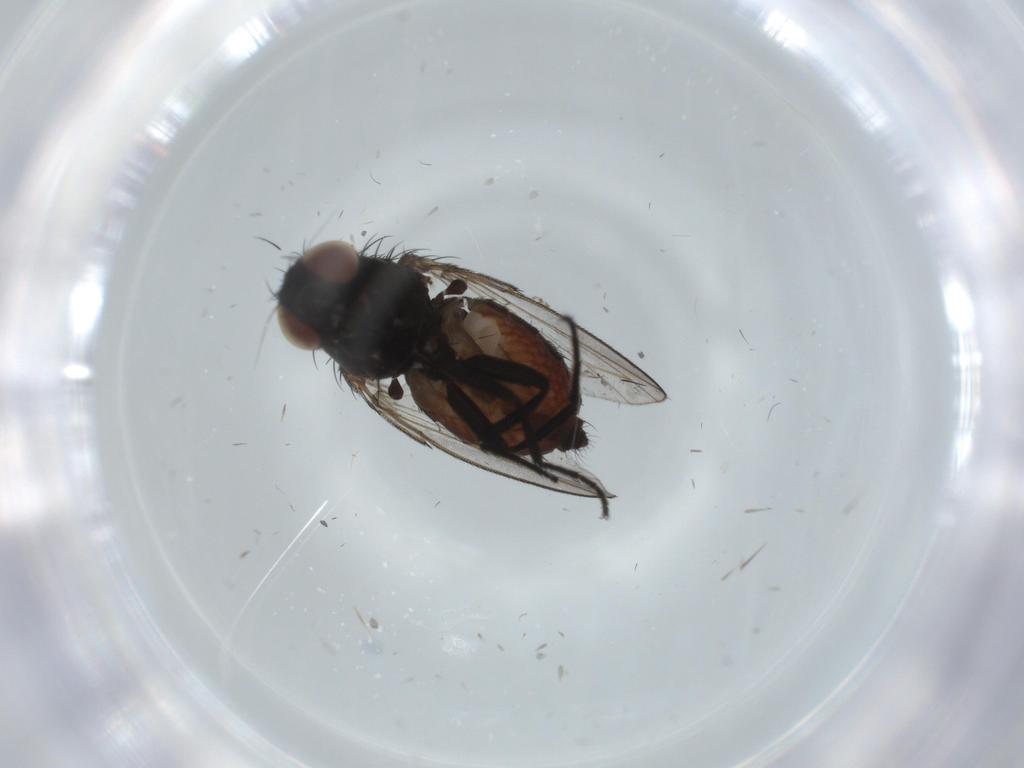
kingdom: Animalia
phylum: Arthropoda
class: Insecta
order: Diptera
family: Milichiidae
